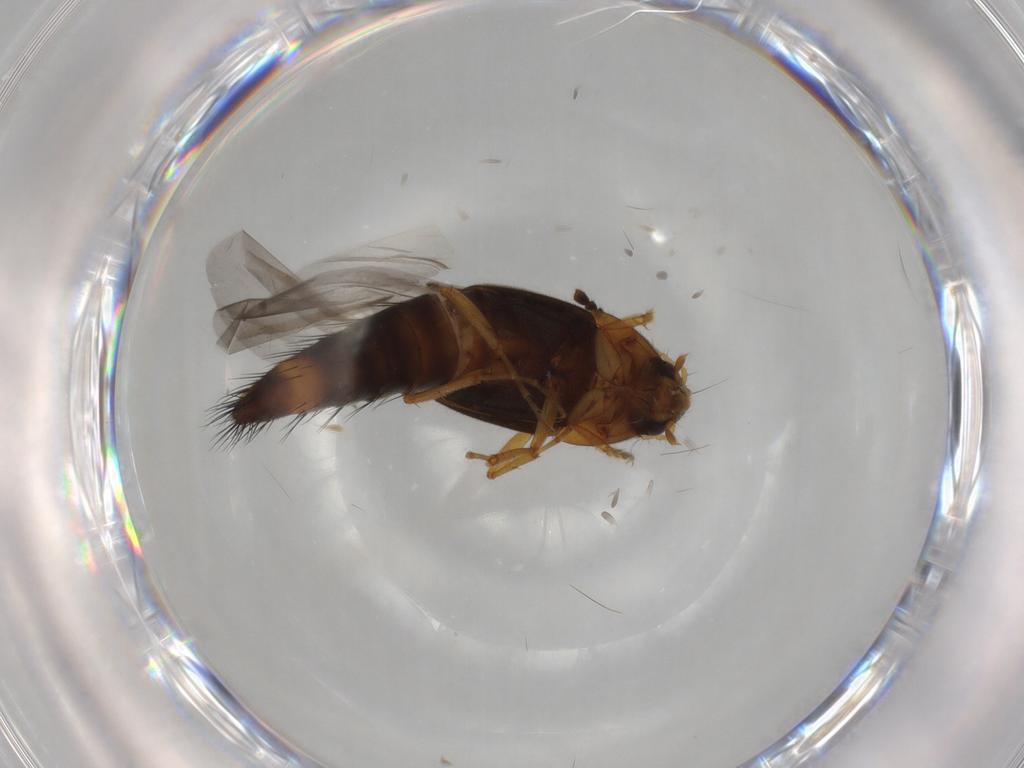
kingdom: Animalia
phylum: Arthropoda
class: Insecta
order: Coleoptera
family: Staphylinidae
